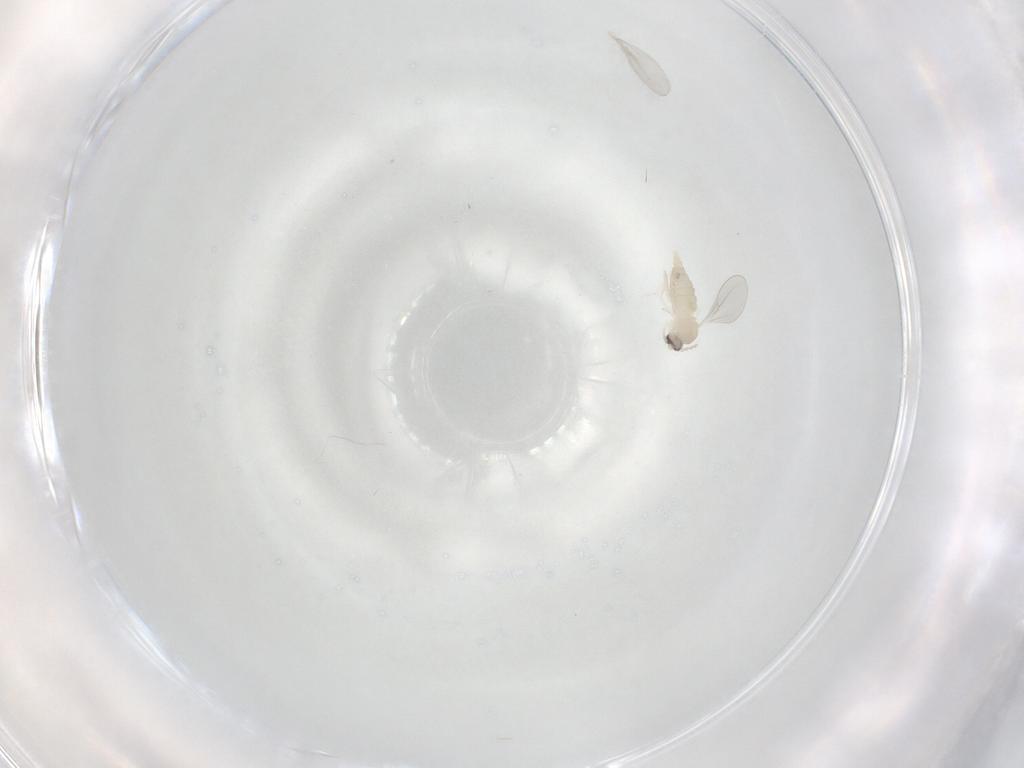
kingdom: Animalia
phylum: Arthropoda
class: Insecta
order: Diptera
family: Cecidomyiidae
